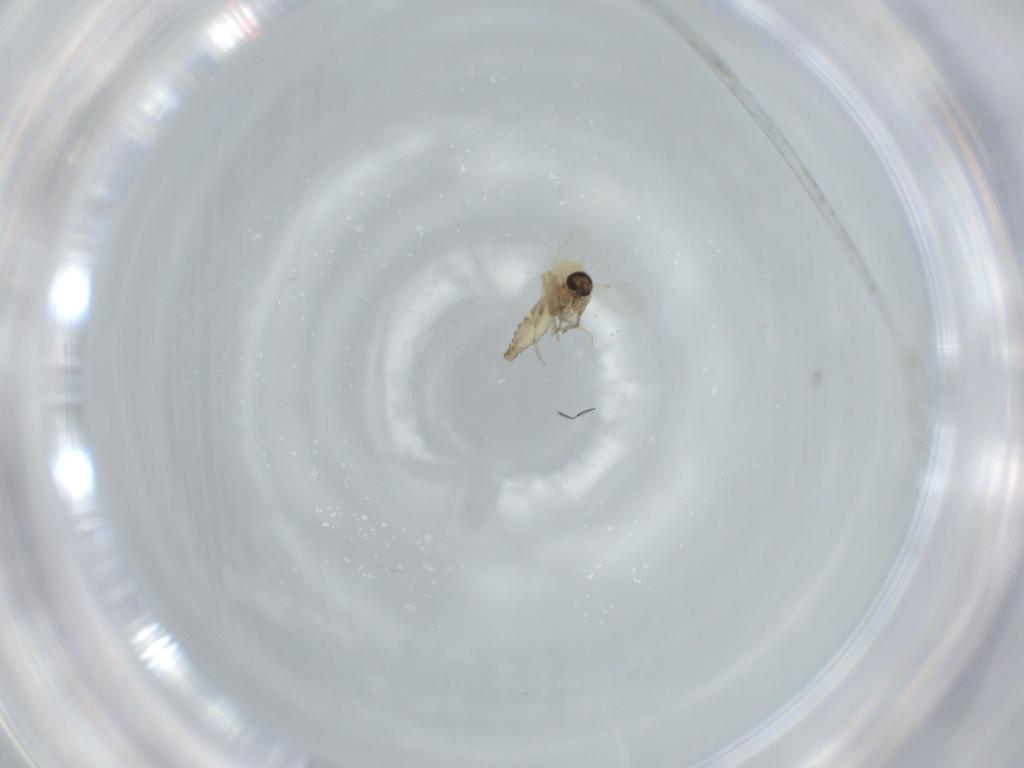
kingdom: Animalia
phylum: Arthropoda
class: Insecta
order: Diptera
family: Ceratopogonidae
